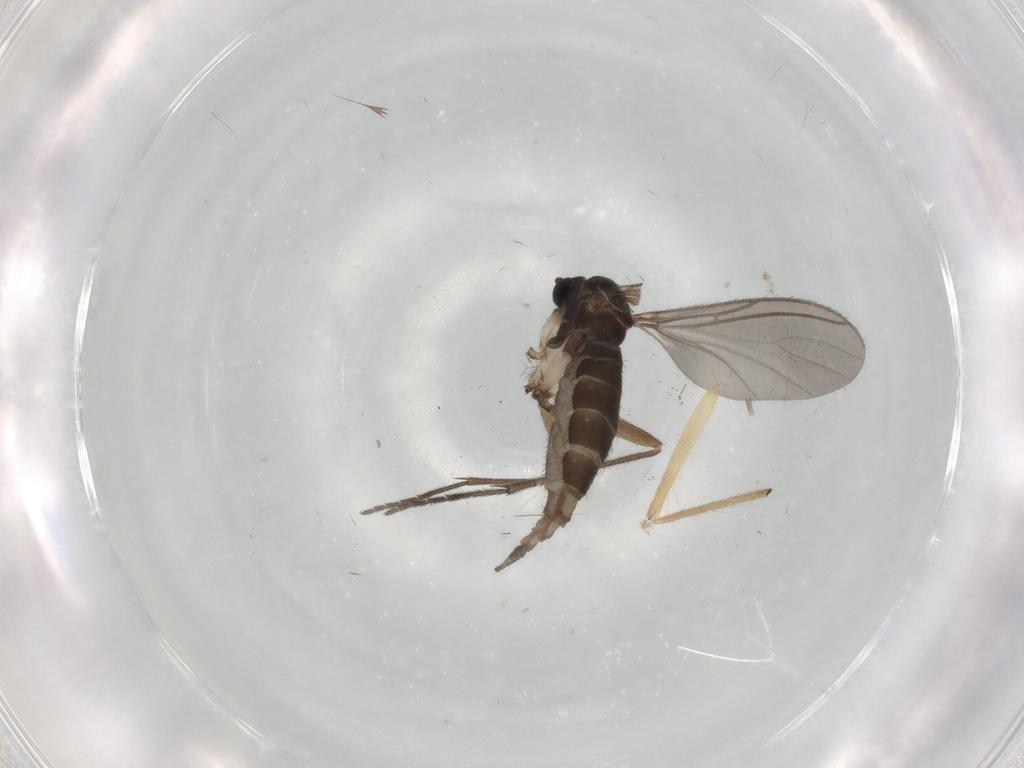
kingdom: Animalia
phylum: Arthropoda
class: Insecta
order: Diptera
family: Sciaridae
